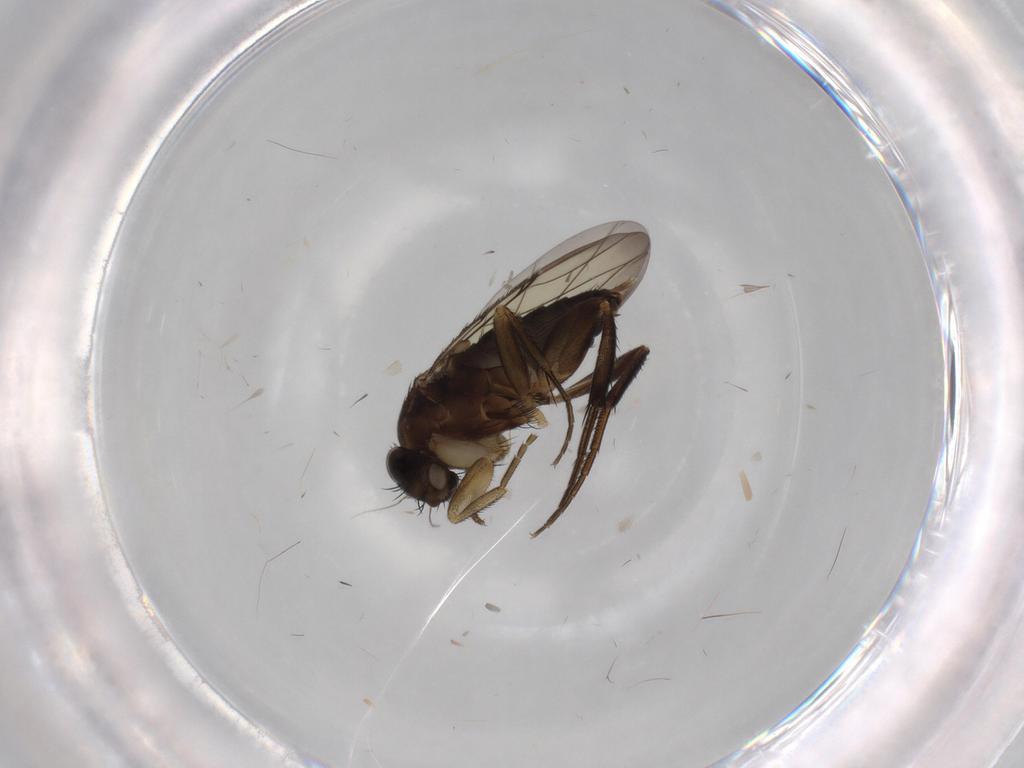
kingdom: Animalia
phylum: Arthropoda
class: Insecta
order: Diptera
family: Phoridae
